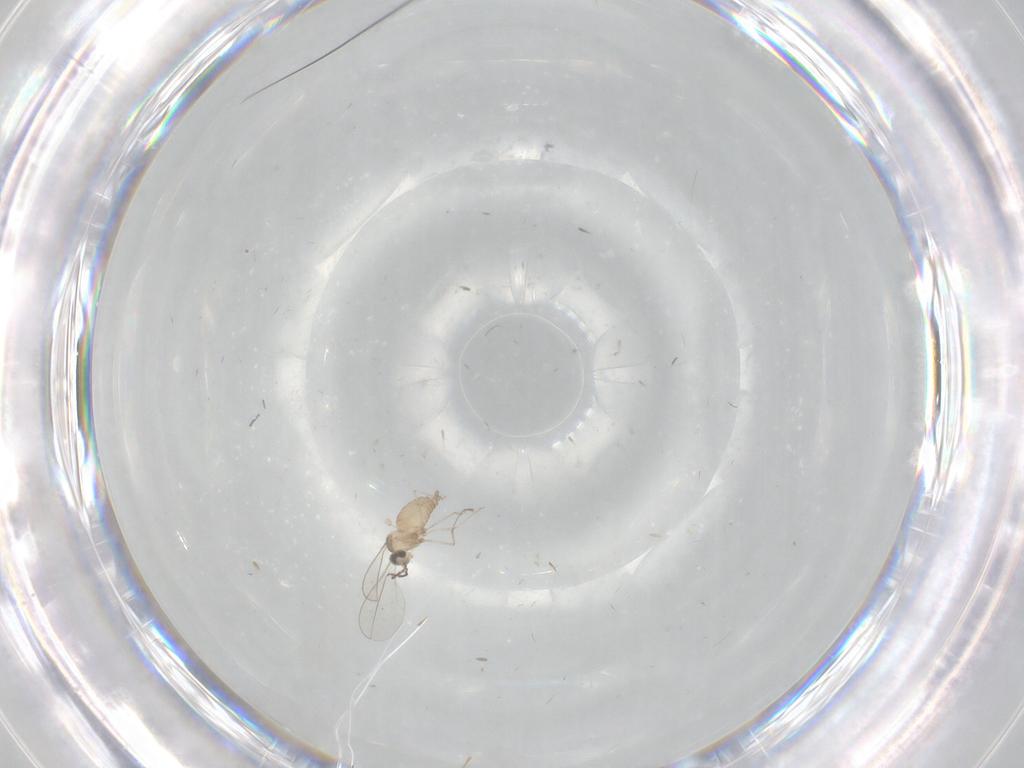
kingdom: Animalia
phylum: Arthropoda
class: Insecta
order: Diptera
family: Cecidomyiidae
